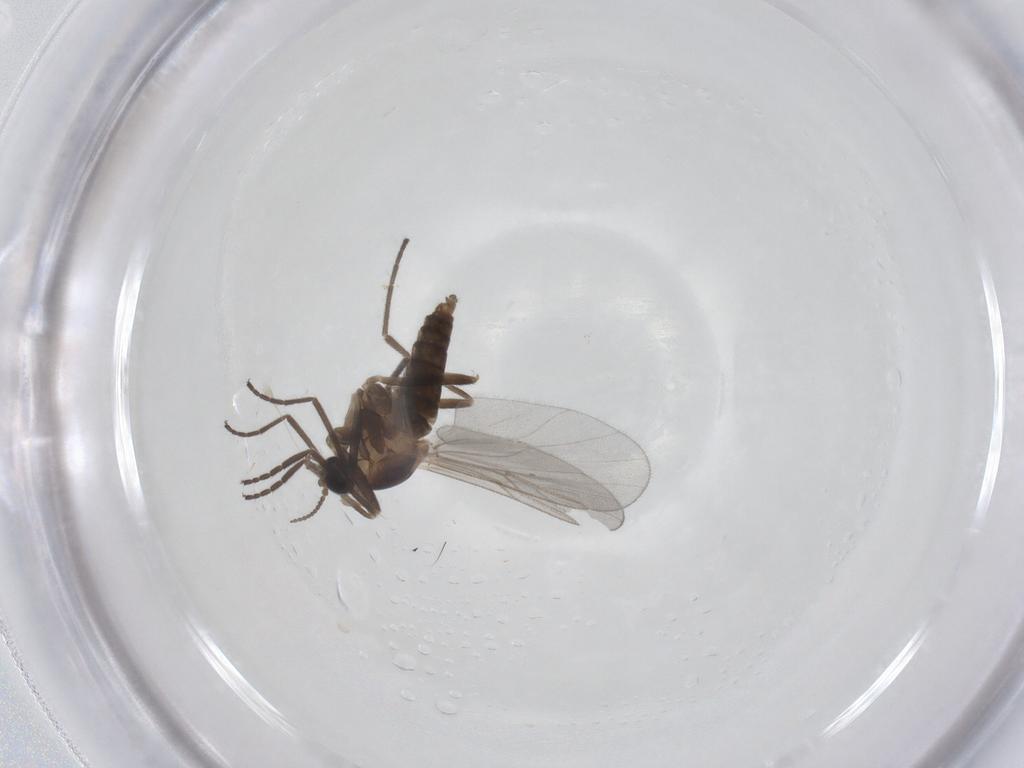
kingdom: Animalia
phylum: Arthropoda
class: Insecta
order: Diptera
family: Cecidomyiidae
